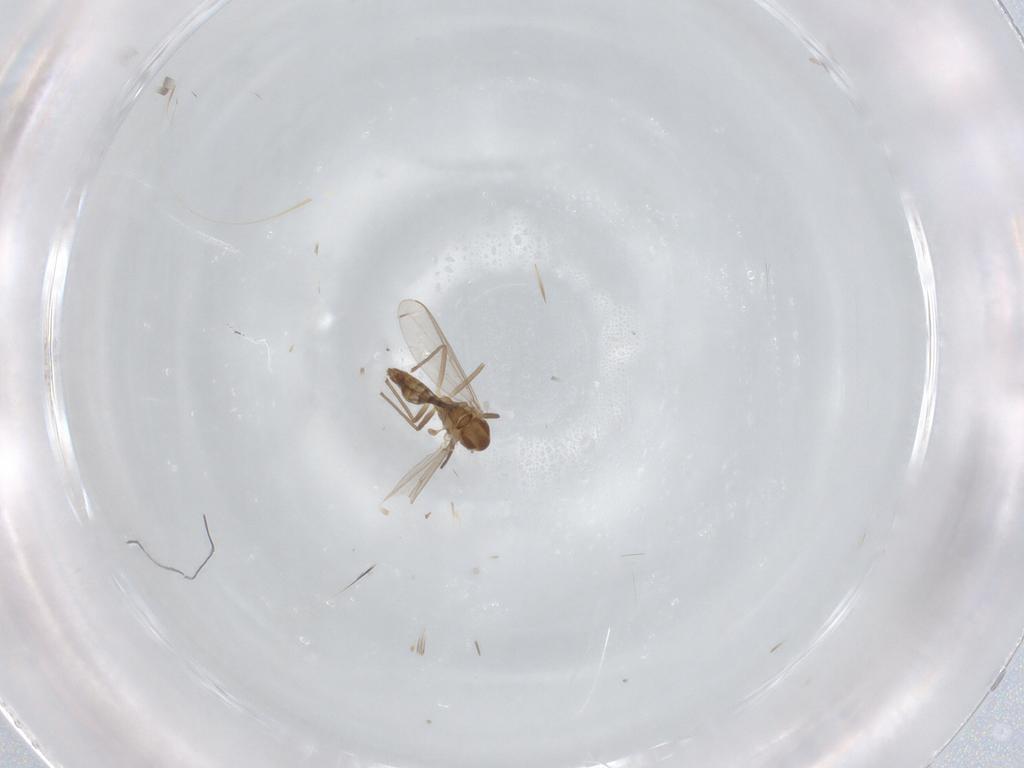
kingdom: Animalia
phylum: Arthropoda
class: Insecta
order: Diptera
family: Chironomidae
